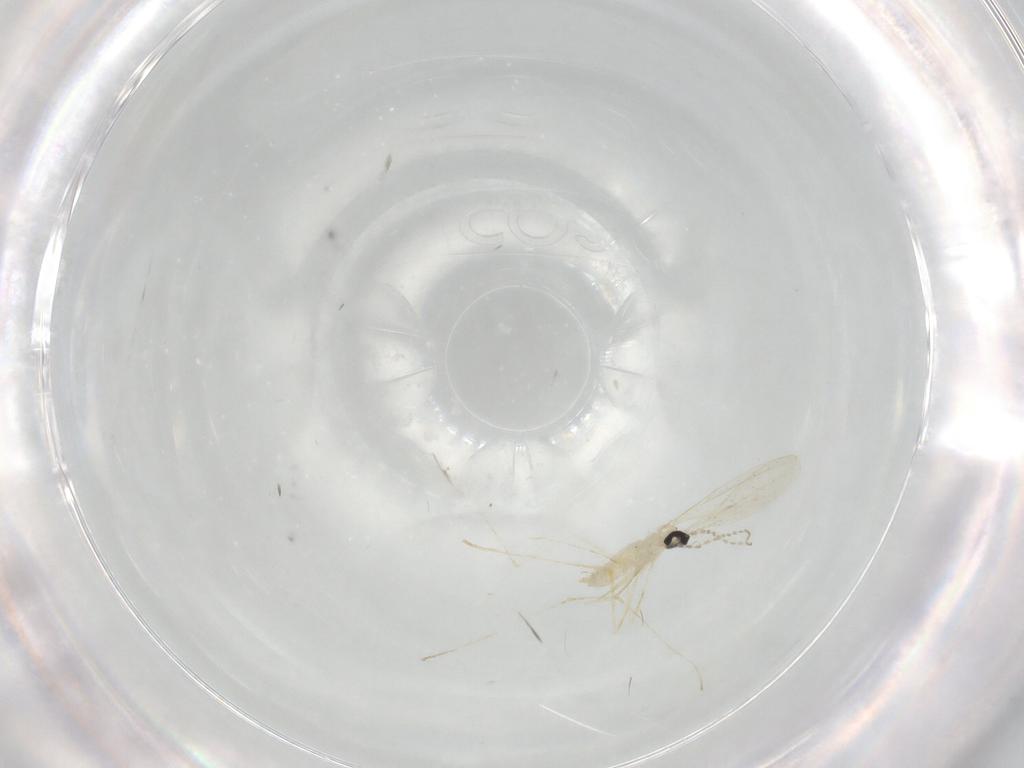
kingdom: Animalia
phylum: Arthropoda
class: Insecta
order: Diptera
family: Cecidomyiidae
